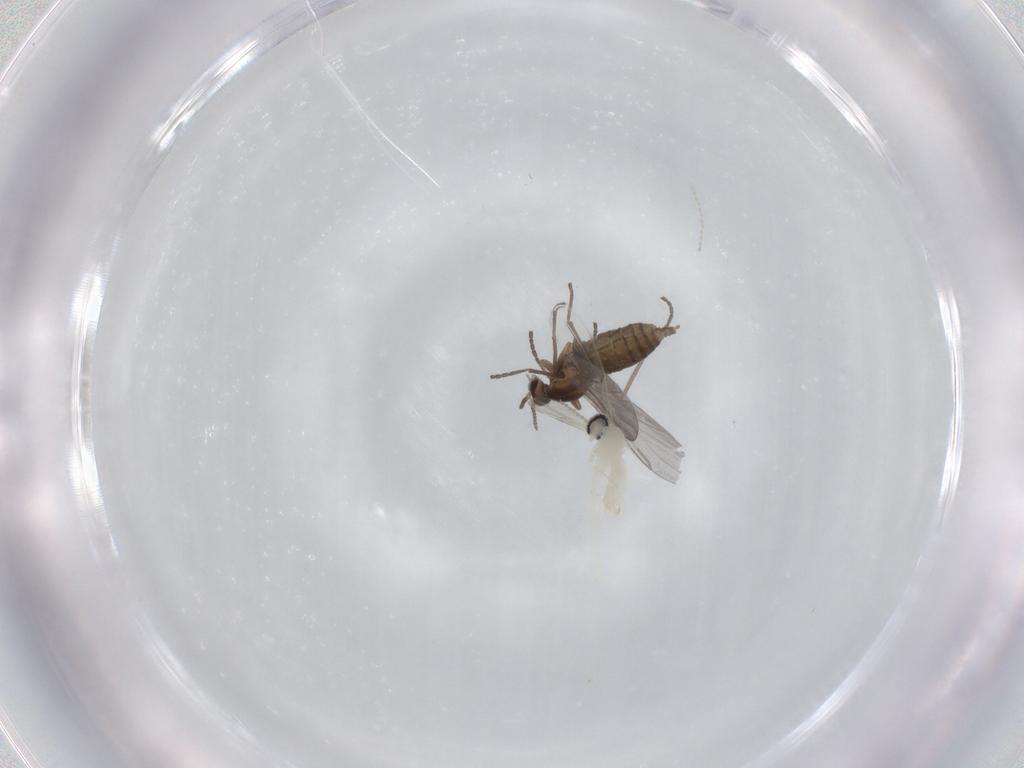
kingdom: Animalia
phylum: Arthropoda
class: Insecta
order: Diptera
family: Cecidomyiidae
